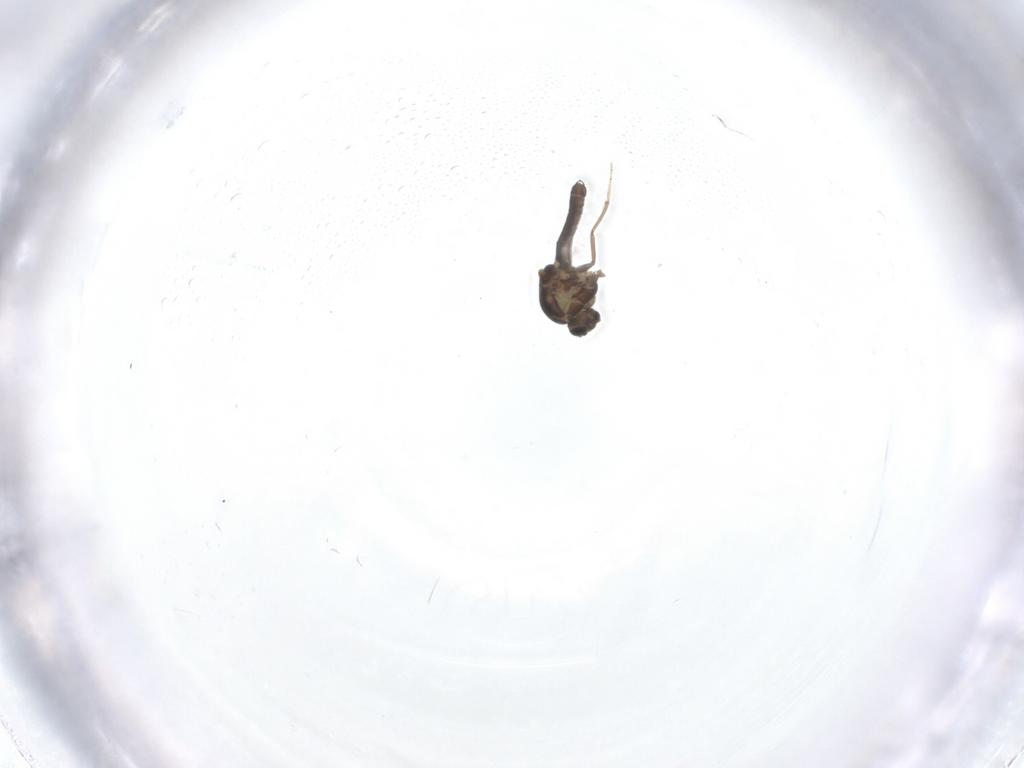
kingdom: Animalia
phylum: Arthropoda
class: Insecta
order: Diptera
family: Ceratopogonidae
